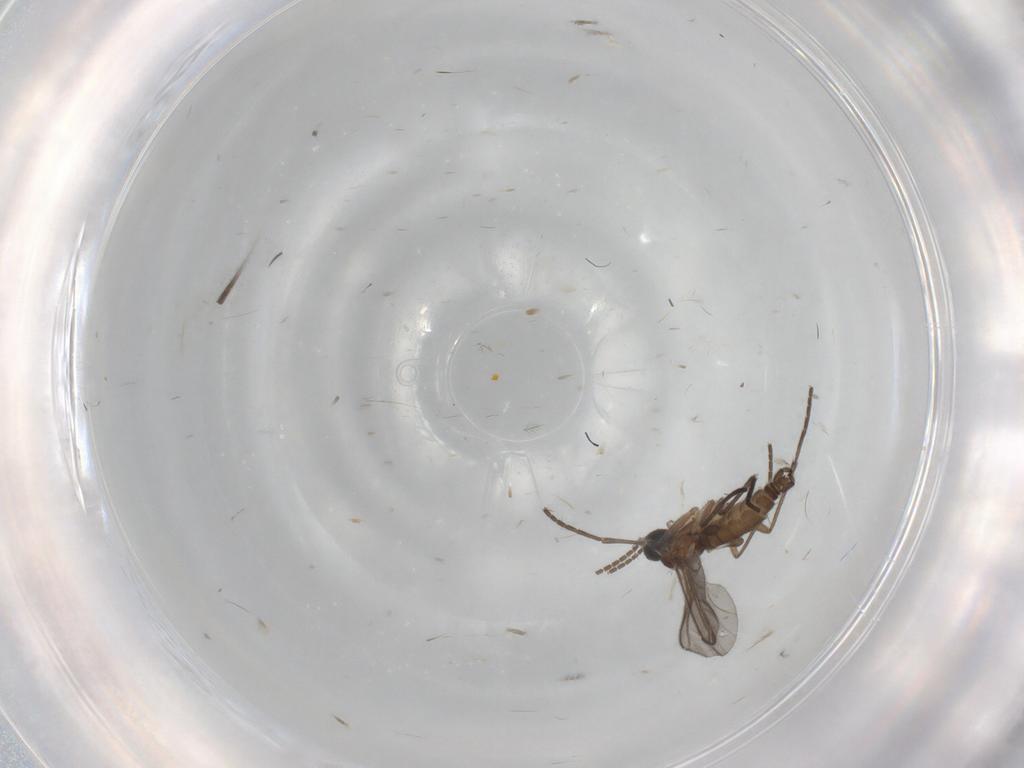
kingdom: Animalia
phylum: Arthropoda
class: Insecta
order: Diptera
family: Sciaridae
